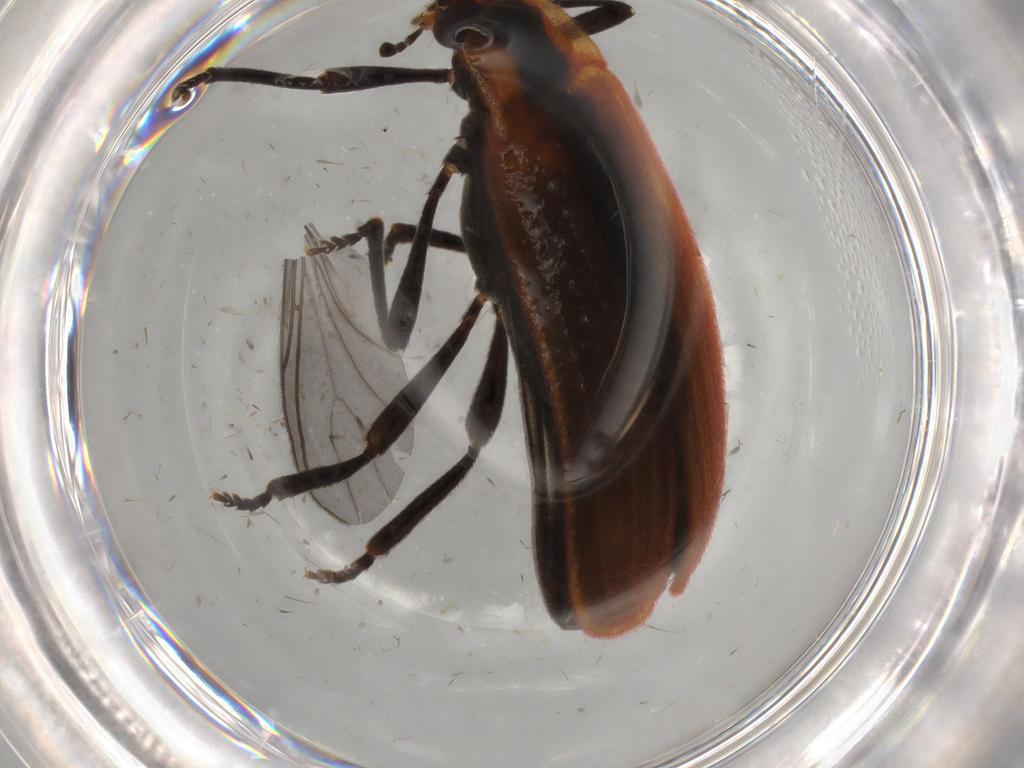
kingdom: Animalia
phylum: Arthropoda
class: Insecta
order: Coleoptera
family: Lycidae
